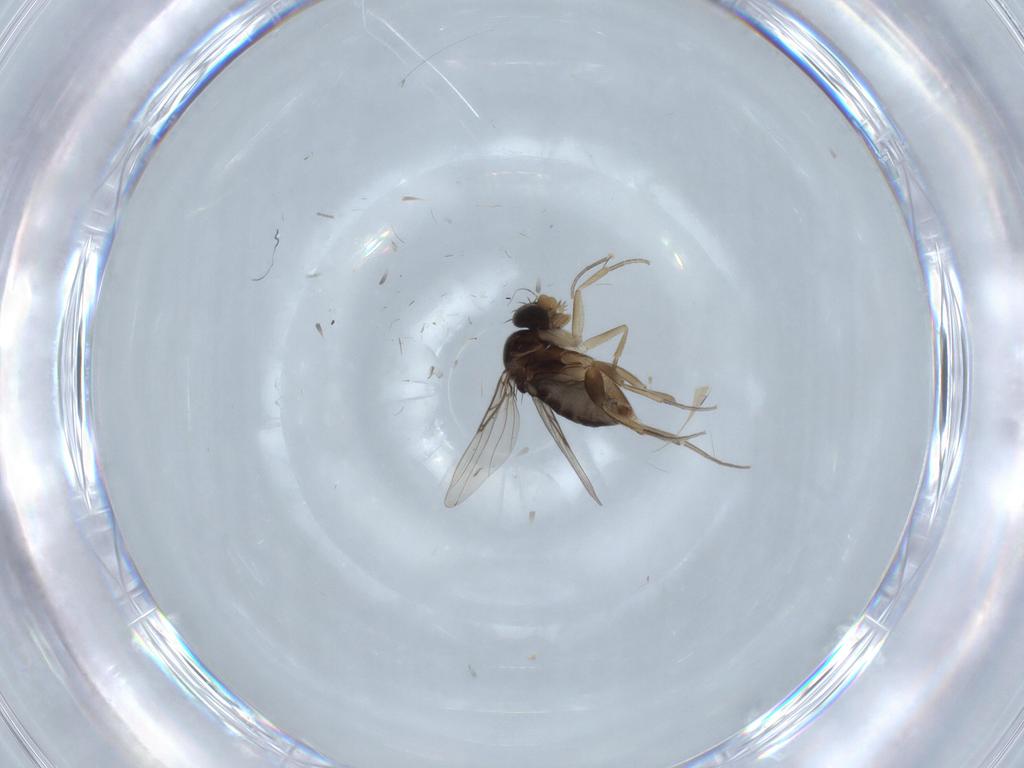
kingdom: Animalia
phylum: Arthropoda
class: Insecta
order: Diptera
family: Phoridae
